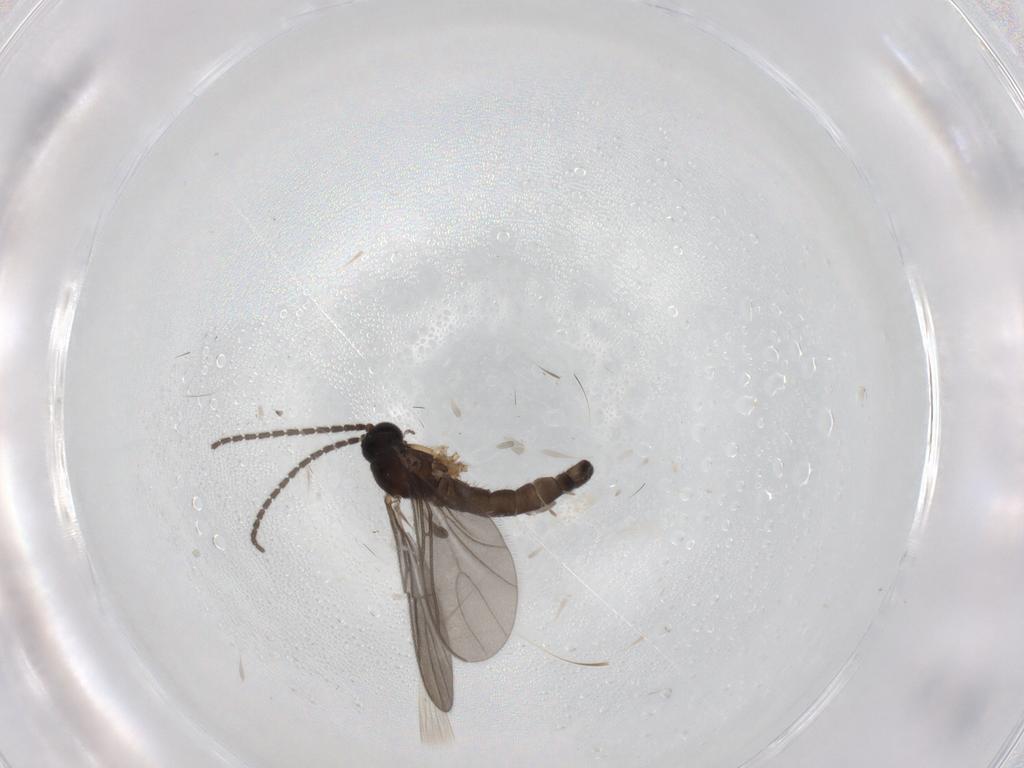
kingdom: Animalia
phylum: Arthropoda
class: Insecta
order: Diptera
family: Sciaridae
